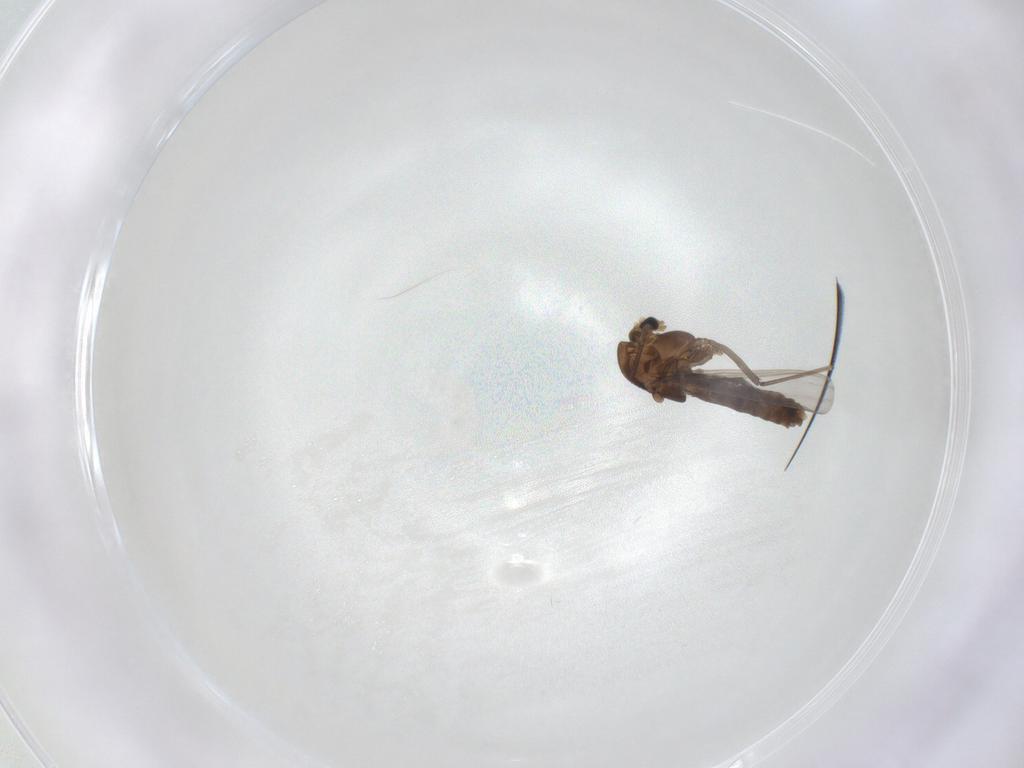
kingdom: Animalia
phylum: Arthropoda
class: Insecta
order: Diptera
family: Chironomidae
